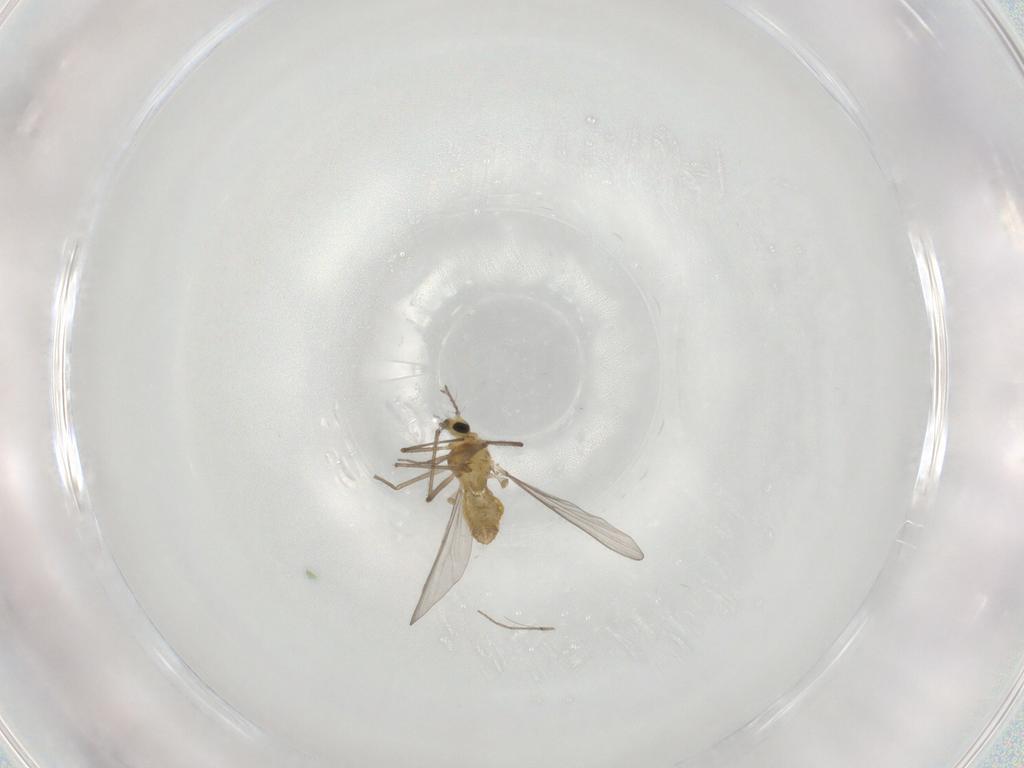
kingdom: Animalia
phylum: Arthropoda
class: Insecta
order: Diptera
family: Chironomidae
